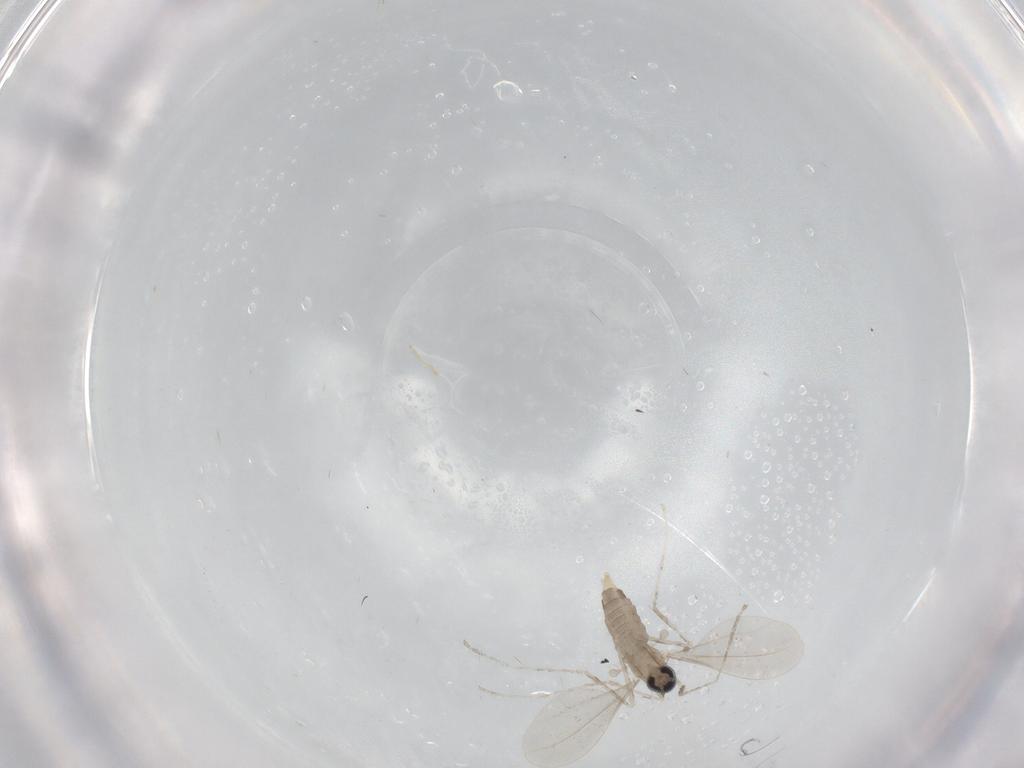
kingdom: Animalia
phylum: Arthropoda
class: Insecta
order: Diptera
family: Cecidomyiidae
